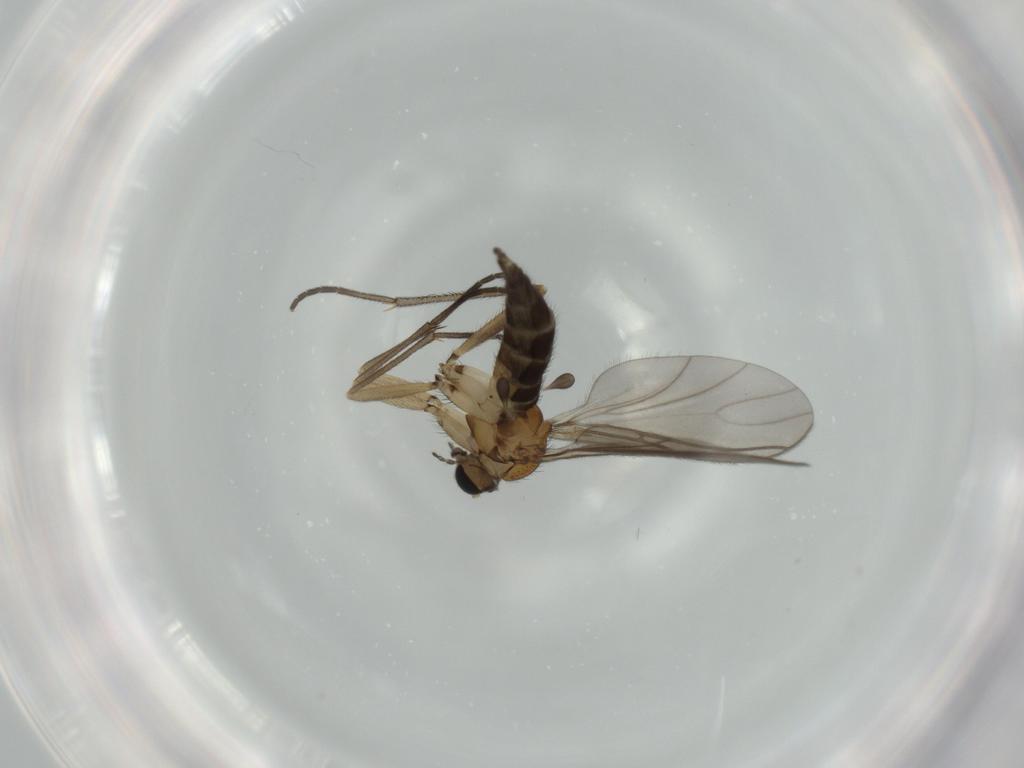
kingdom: Animalia
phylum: Arthropoda
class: Insecta
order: Diptera
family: Sciaridae
